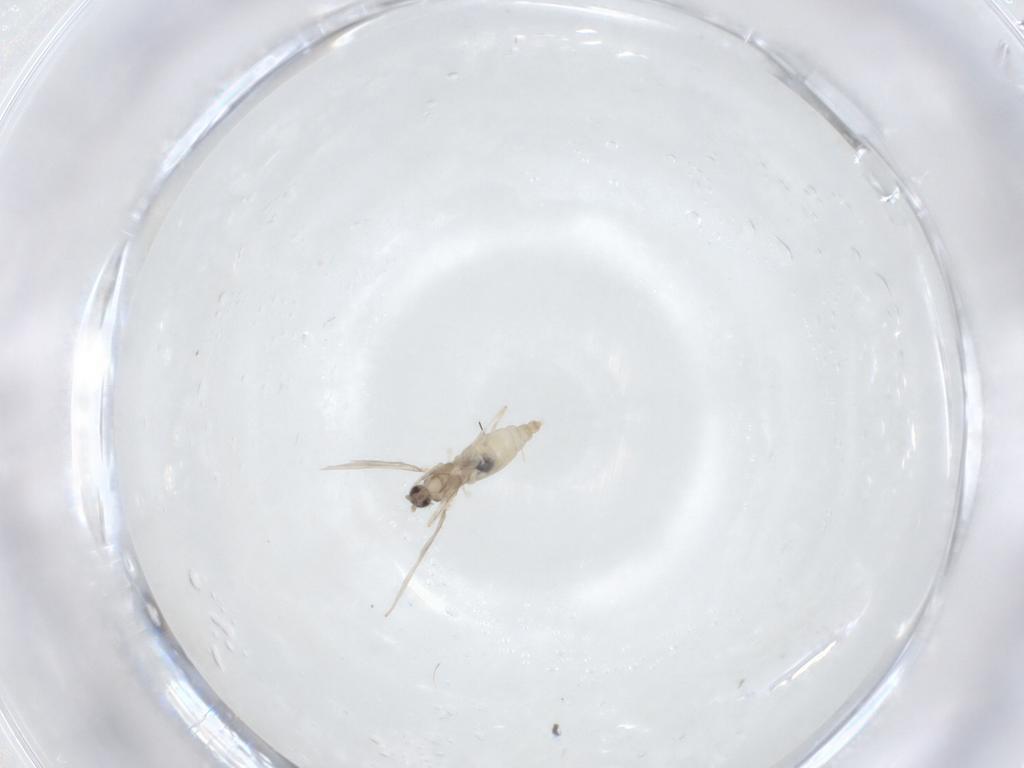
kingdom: Animalia
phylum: Arthropoda
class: Insecta
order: Diptera
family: Cecidomyiidae
